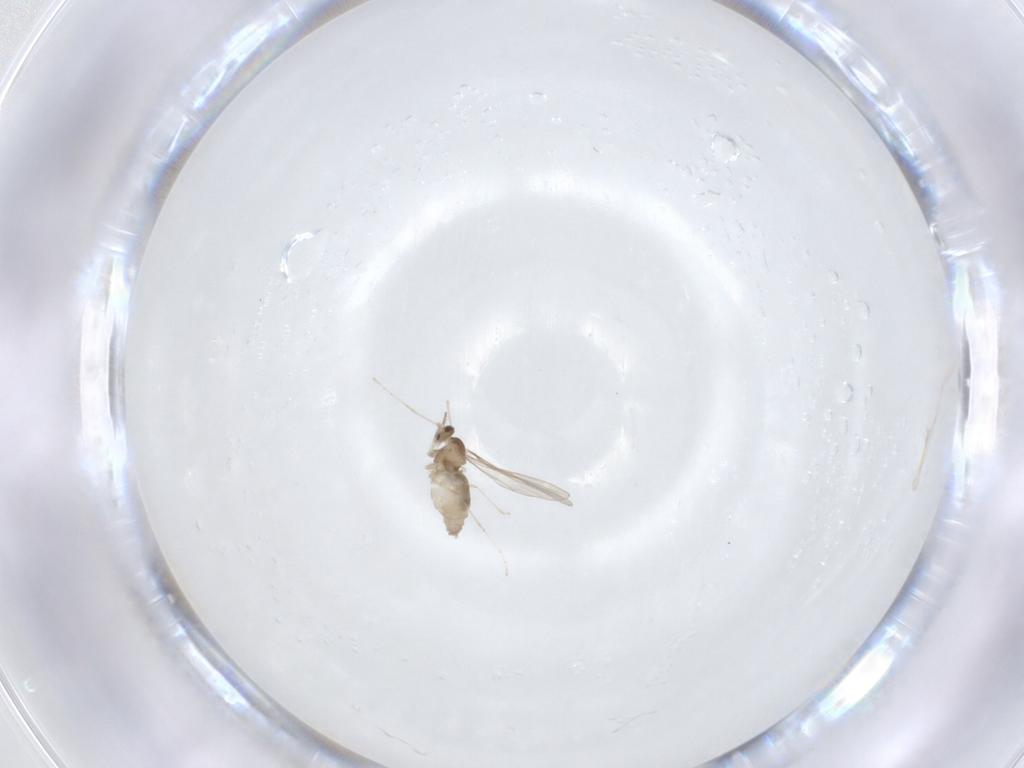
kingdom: Animalia
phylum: Arthropoda
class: Insecta
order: Diptera
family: Cecidomyiidae
